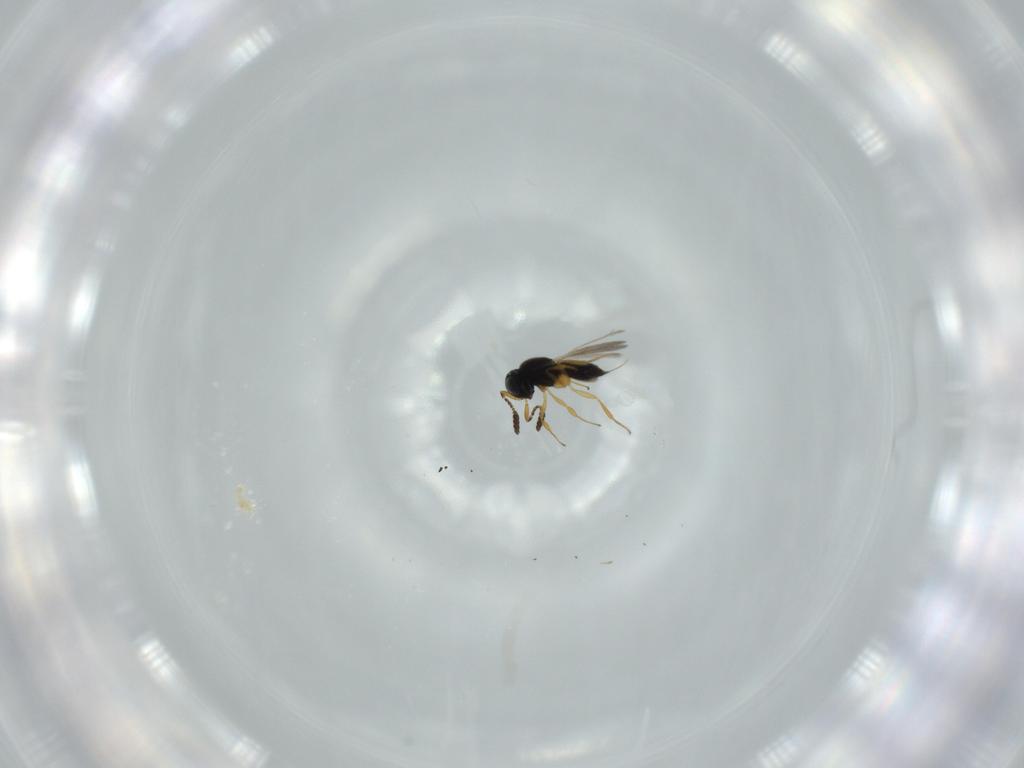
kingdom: Animalia
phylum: Arthropoda
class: Insecta
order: Hymenoptera
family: Scelionidae
